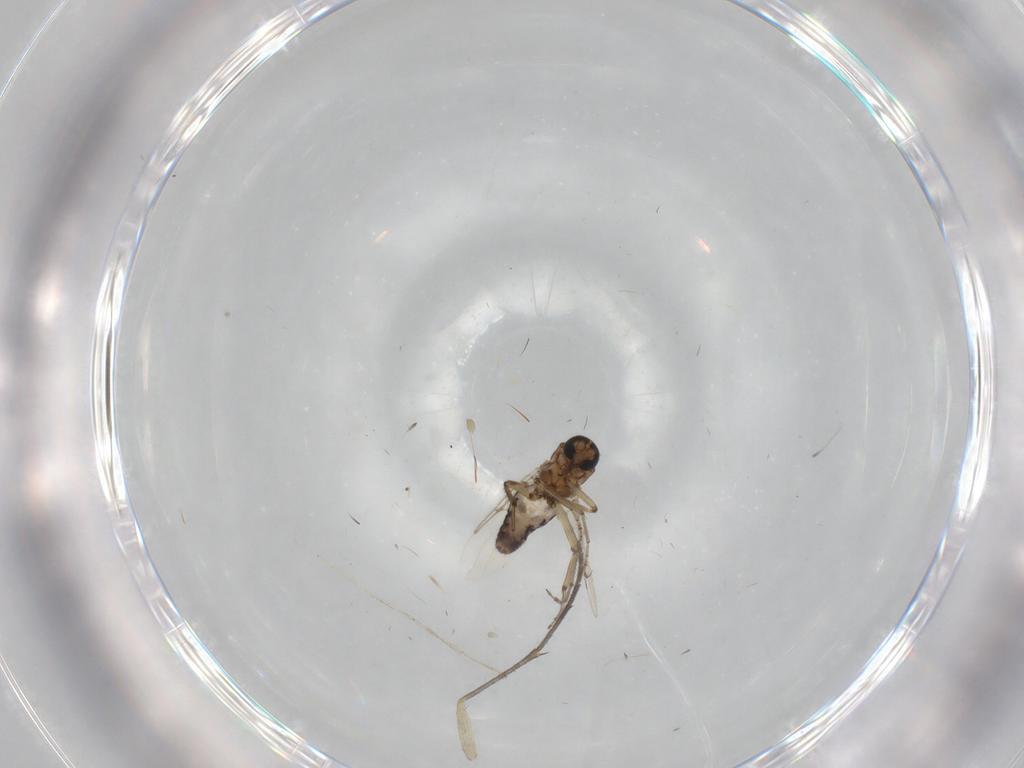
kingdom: Animalia
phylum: Arthropoda
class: Insecta
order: Diptera
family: Ceratopogonidae
